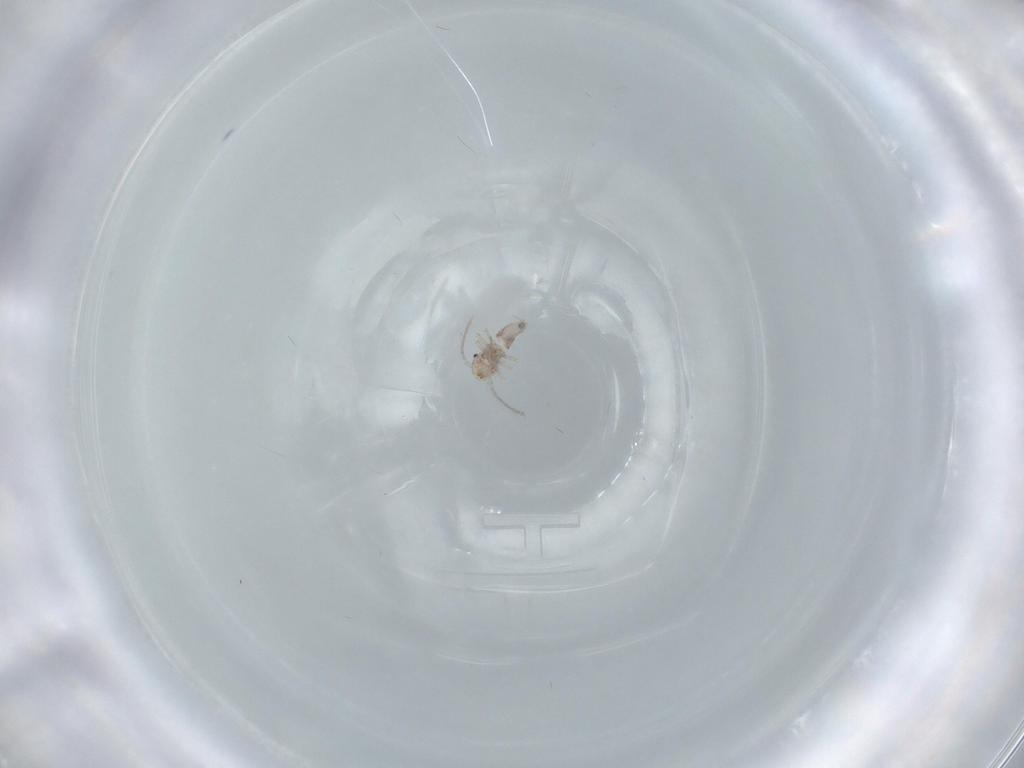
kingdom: Animalia
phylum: Arthropoda
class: Insecta
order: Psocodea
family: Caeciliusidae
